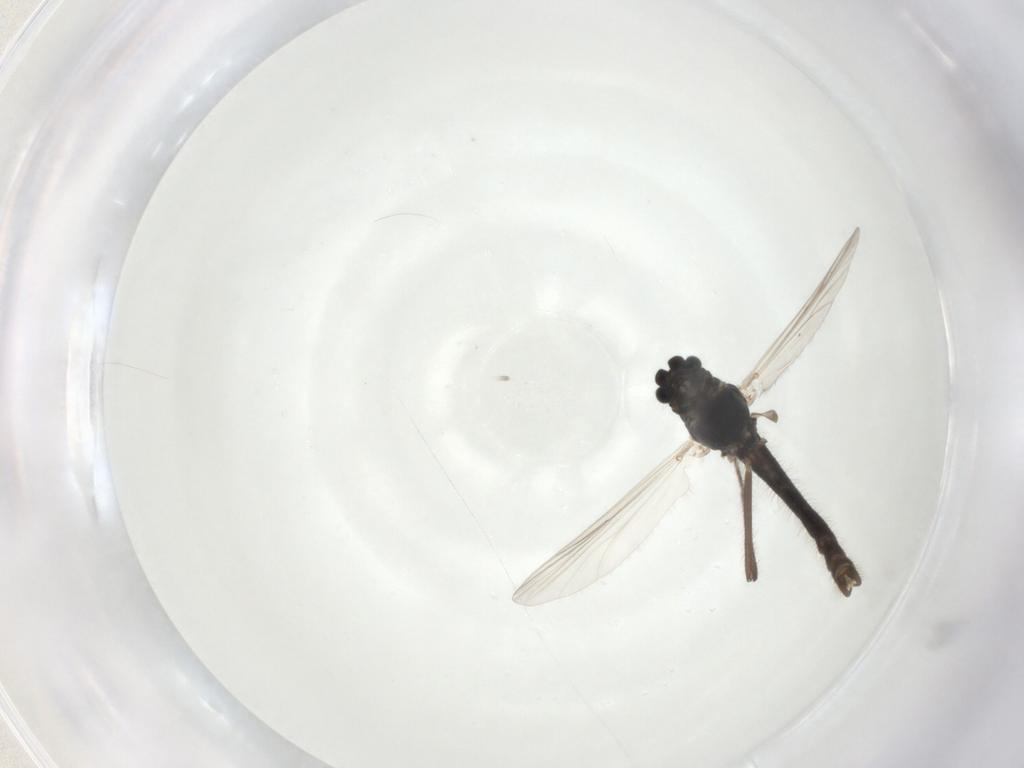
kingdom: Animalia
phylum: Arthropoda
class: Insecta
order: Diptera
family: Chironomidae
